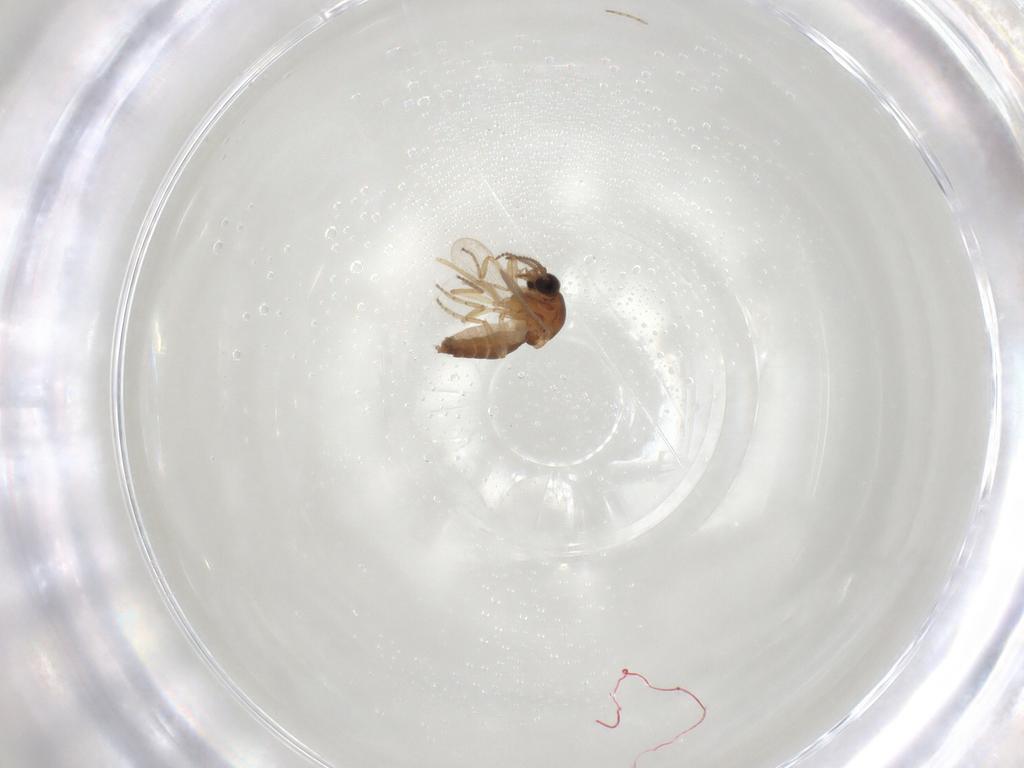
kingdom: Animalia
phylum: Arthropoda
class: Insecta
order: Diptera
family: Ceratopogonidae
